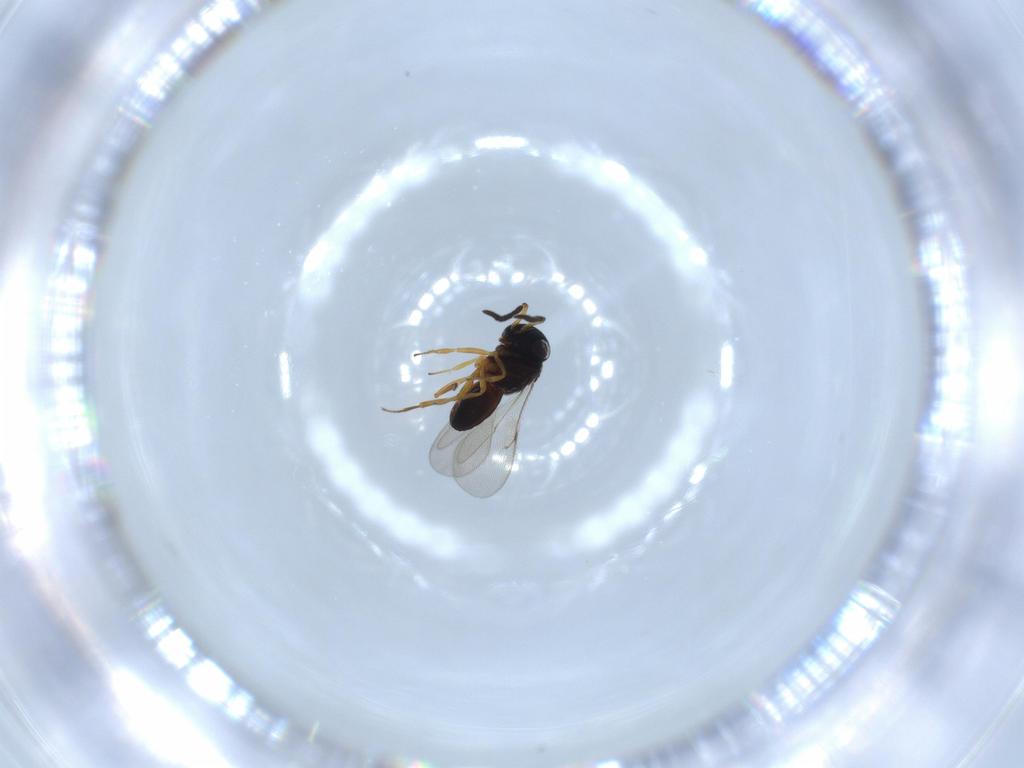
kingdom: Animalia
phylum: Arthropoda
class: Insecta
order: Hymenoptera
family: Scelionidae
